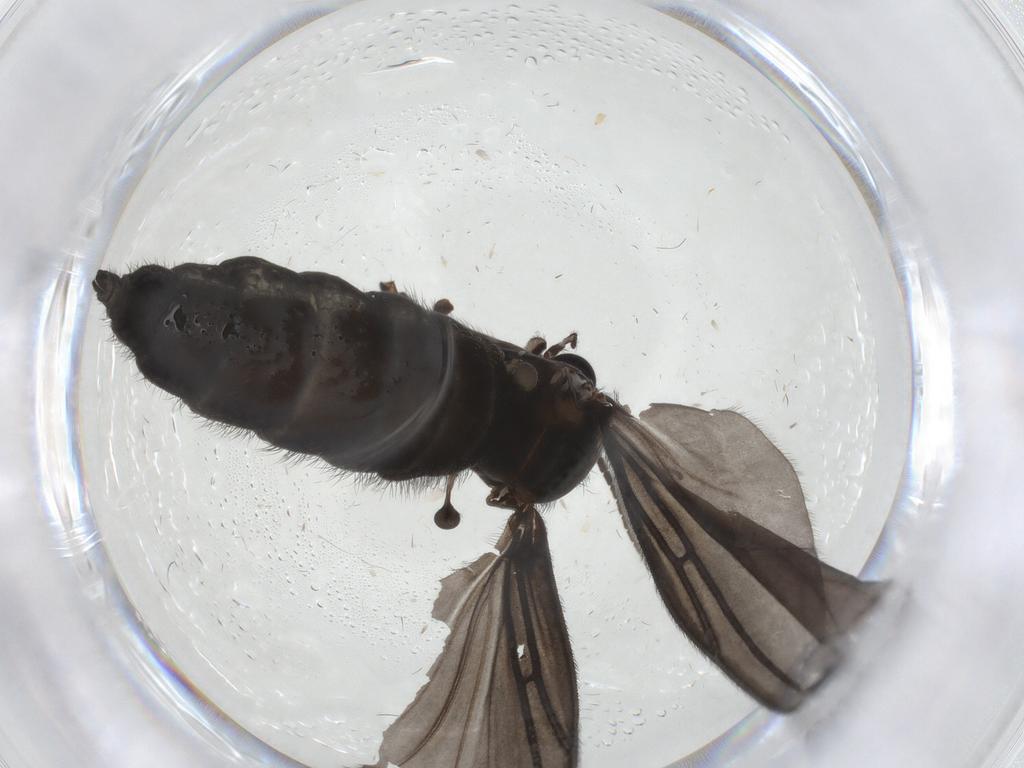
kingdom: Animalia
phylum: Arthropoda
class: Insecta
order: Diptera
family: Sciaridae
